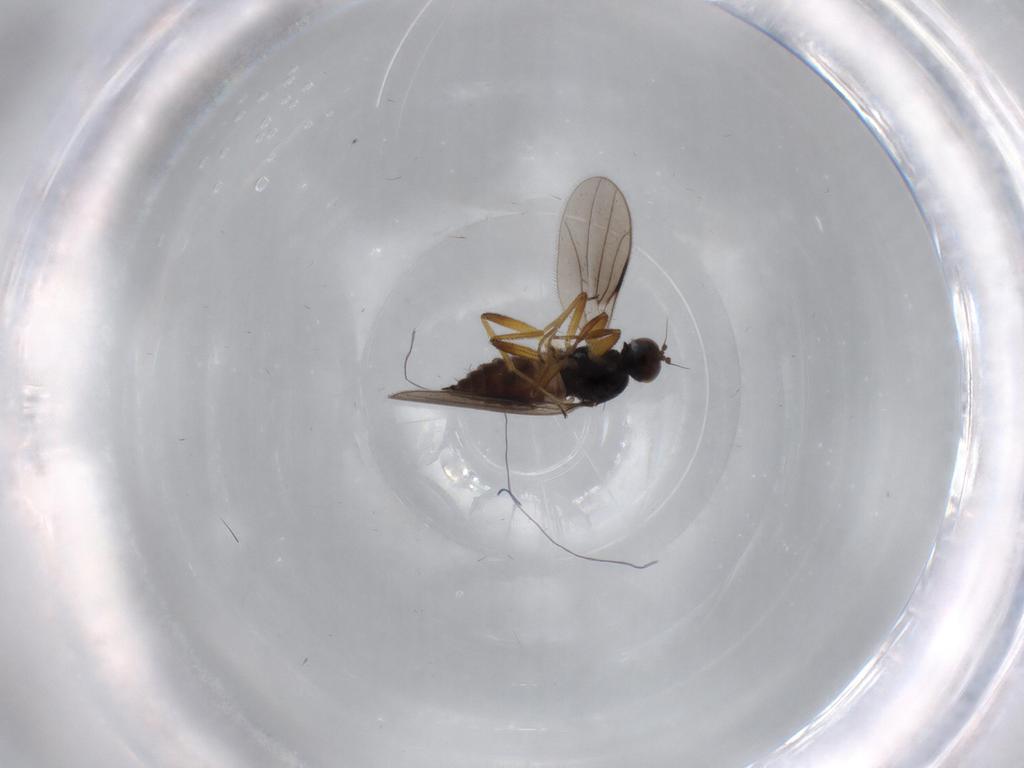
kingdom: Animalia
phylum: Arthropoda
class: Insecta
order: Diptera
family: Hybotidae
